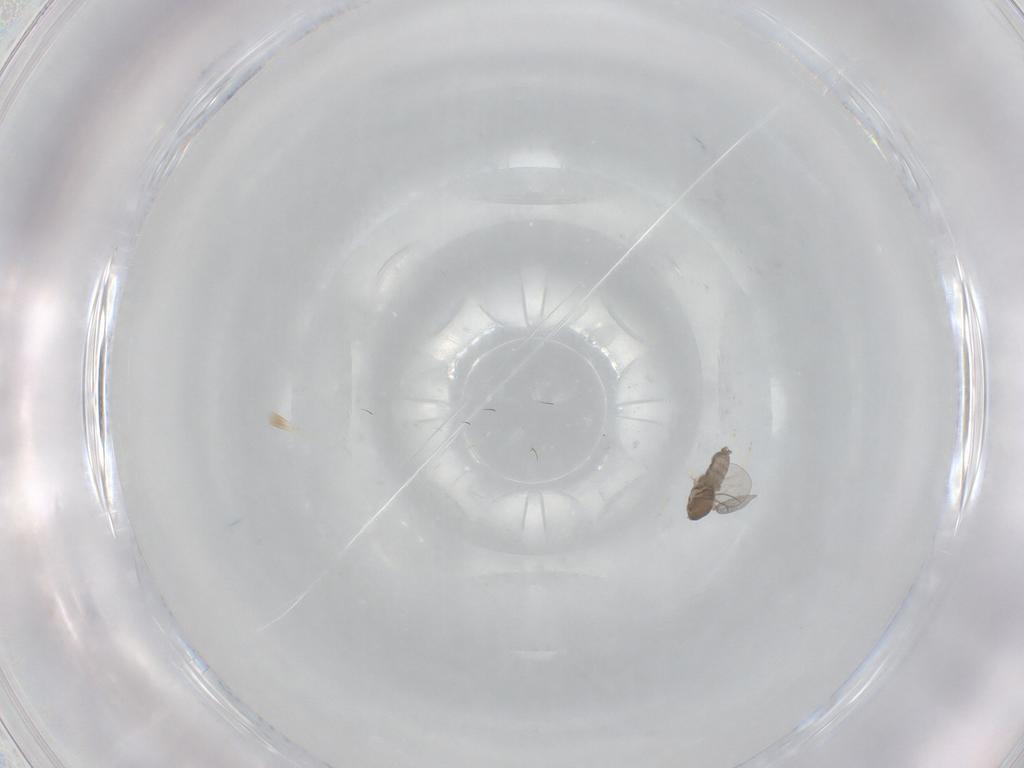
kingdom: Animalia
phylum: Arthropoda
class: Insecta
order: Diptera
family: Cecidomyiidae
